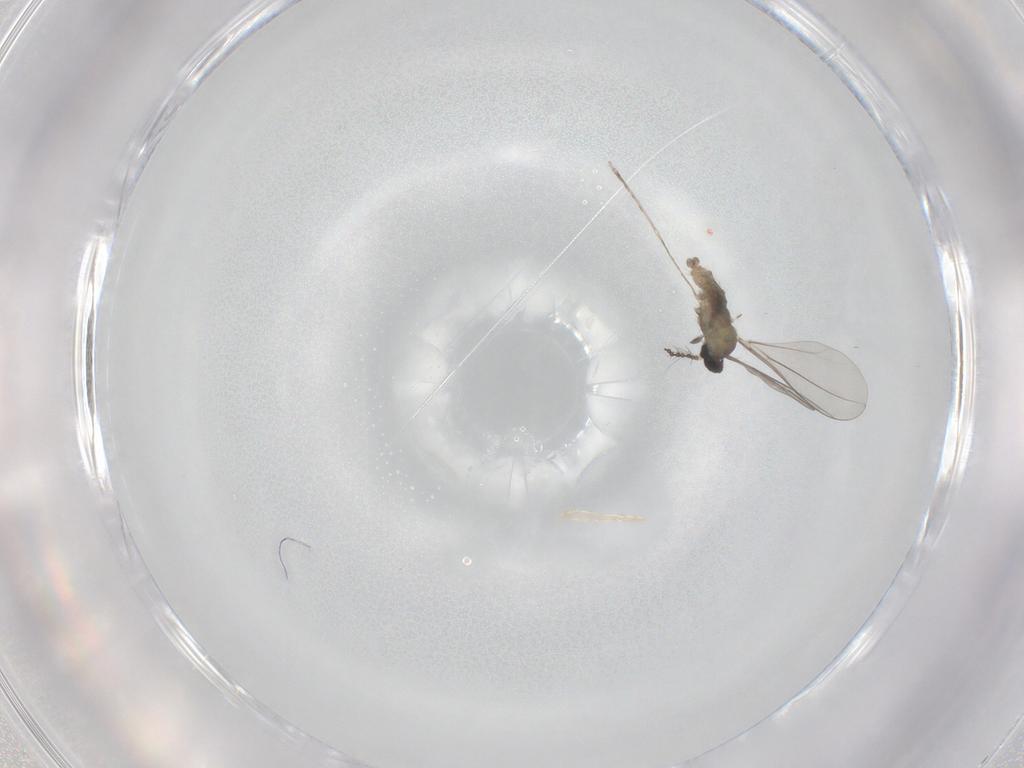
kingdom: Animalia
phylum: Arthropoda
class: Insecta
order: Diptera
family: Cecidomyiidae
